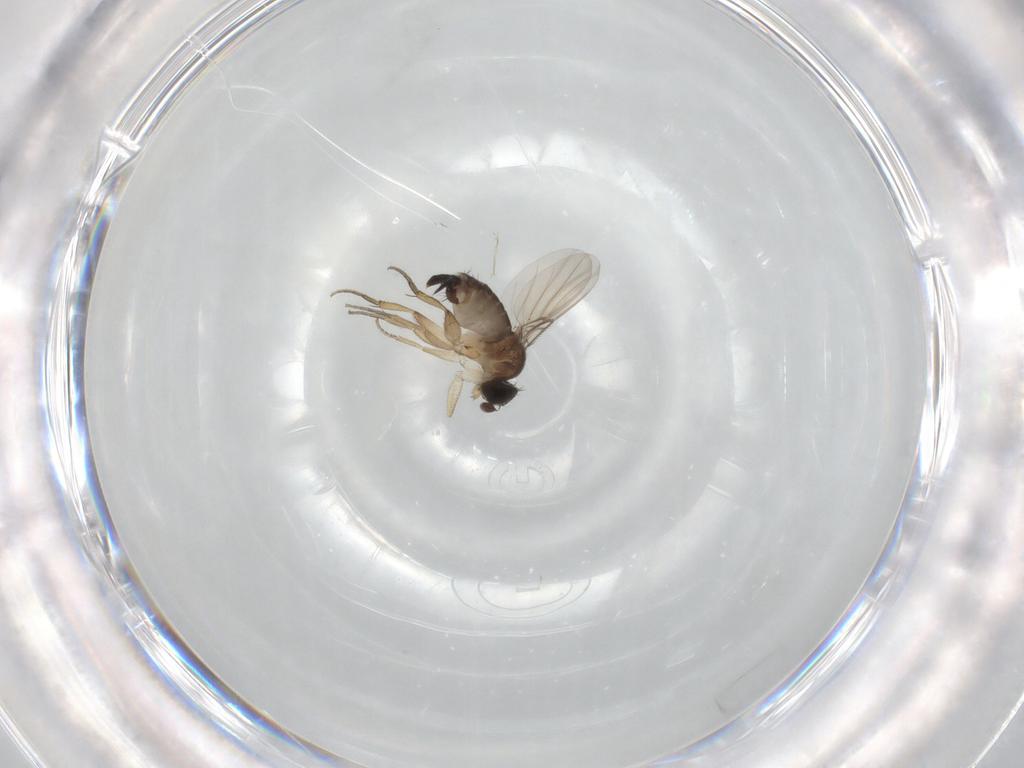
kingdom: Animalia
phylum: Arthropoda
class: Insecta
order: Diptera
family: Phoridae
